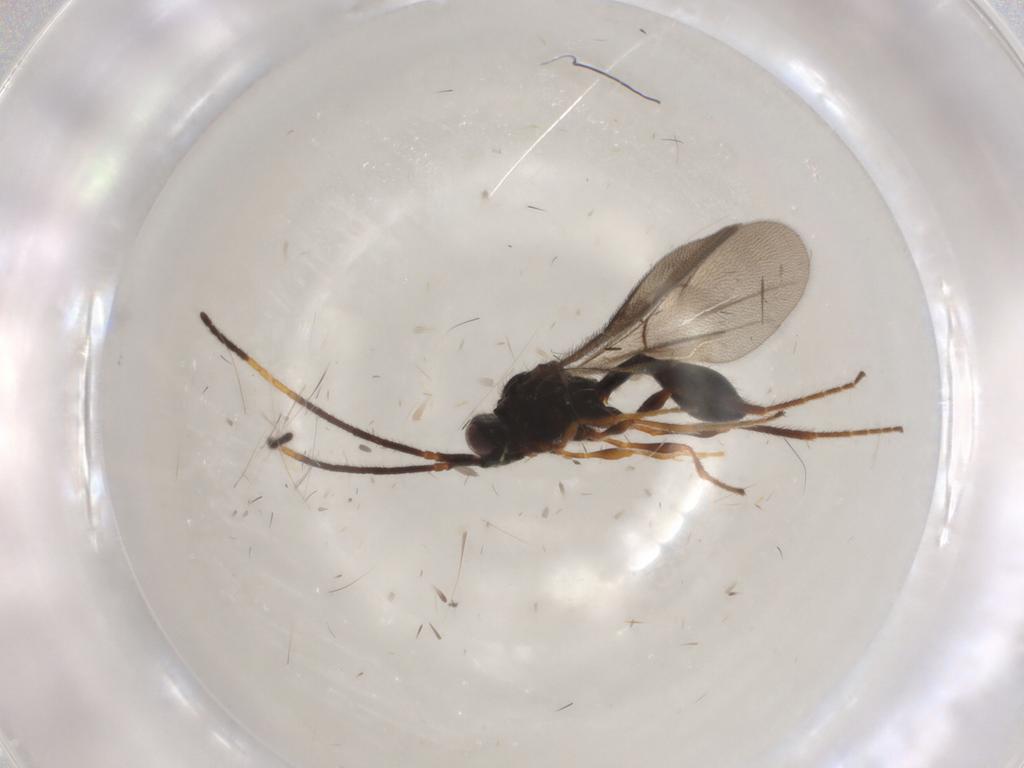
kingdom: Animalia
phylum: Arthropoda
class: Insecta
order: Hymenoptera
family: Diapriidae
